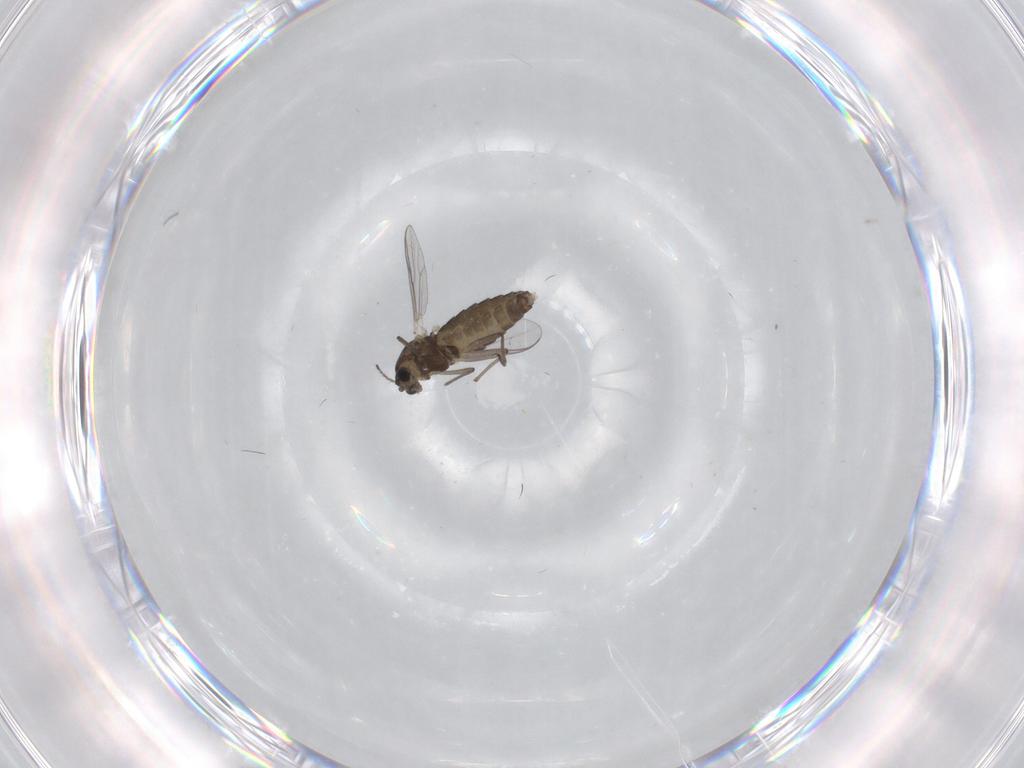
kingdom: Animalia
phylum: Arthropoda
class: Insecta
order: Diptera
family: Chironomidae
